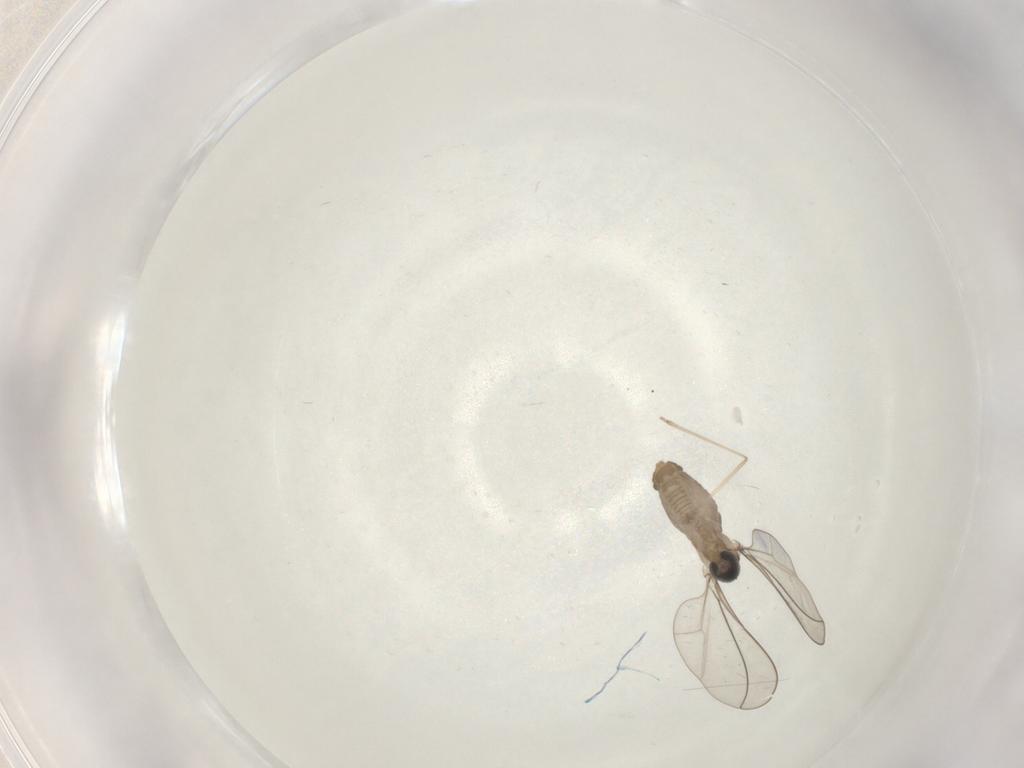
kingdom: Animalia
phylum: Arthropoda
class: Insecta
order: Diptera
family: Cecidomyiidae
